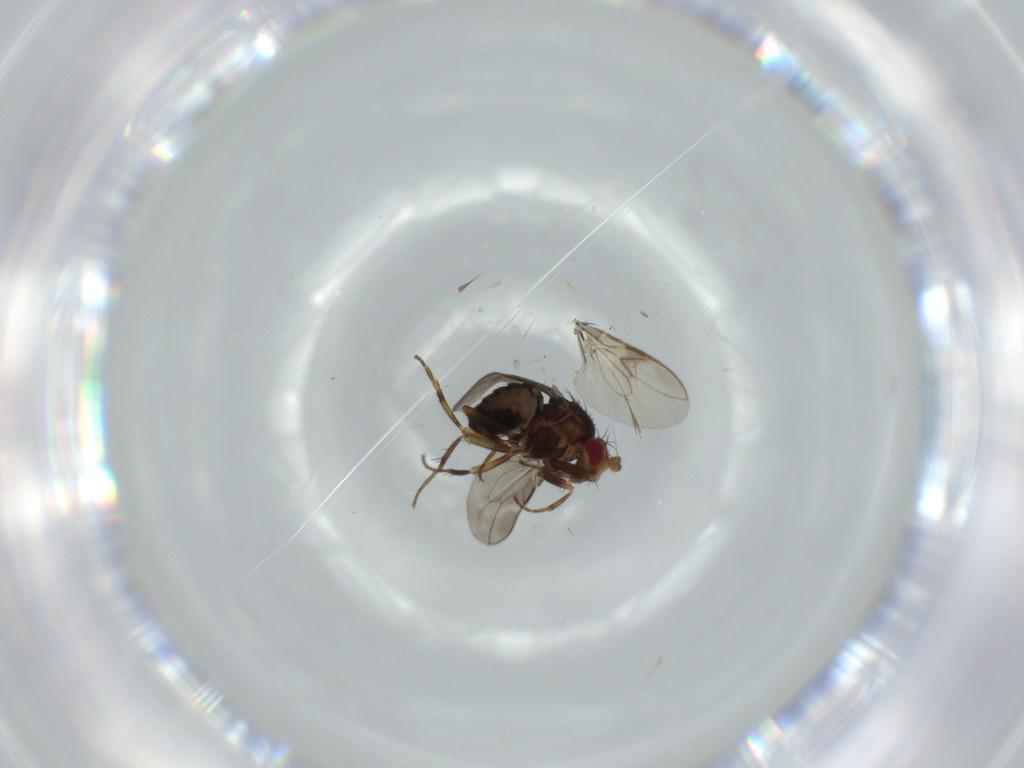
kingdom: Animalia
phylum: Arthropoda
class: Insecta
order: Diptera
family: Sphaeroceridae
